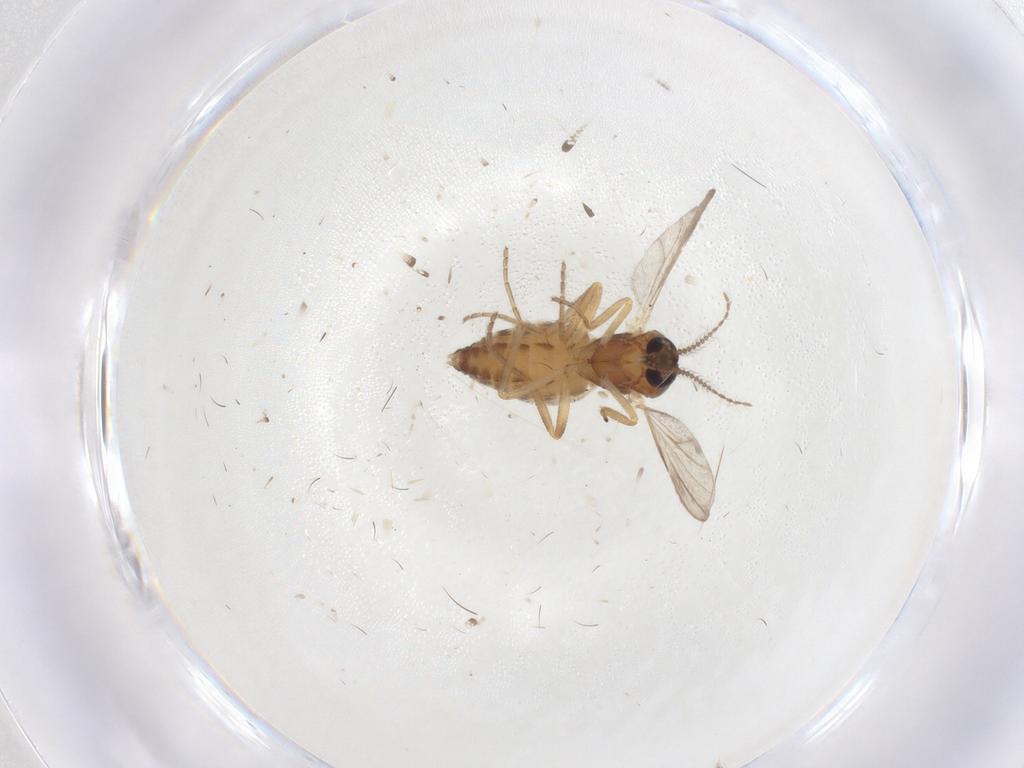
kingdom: Animalia
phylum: Arthropoda
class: Insecta
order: Diptera
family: Ceratopogonidae
